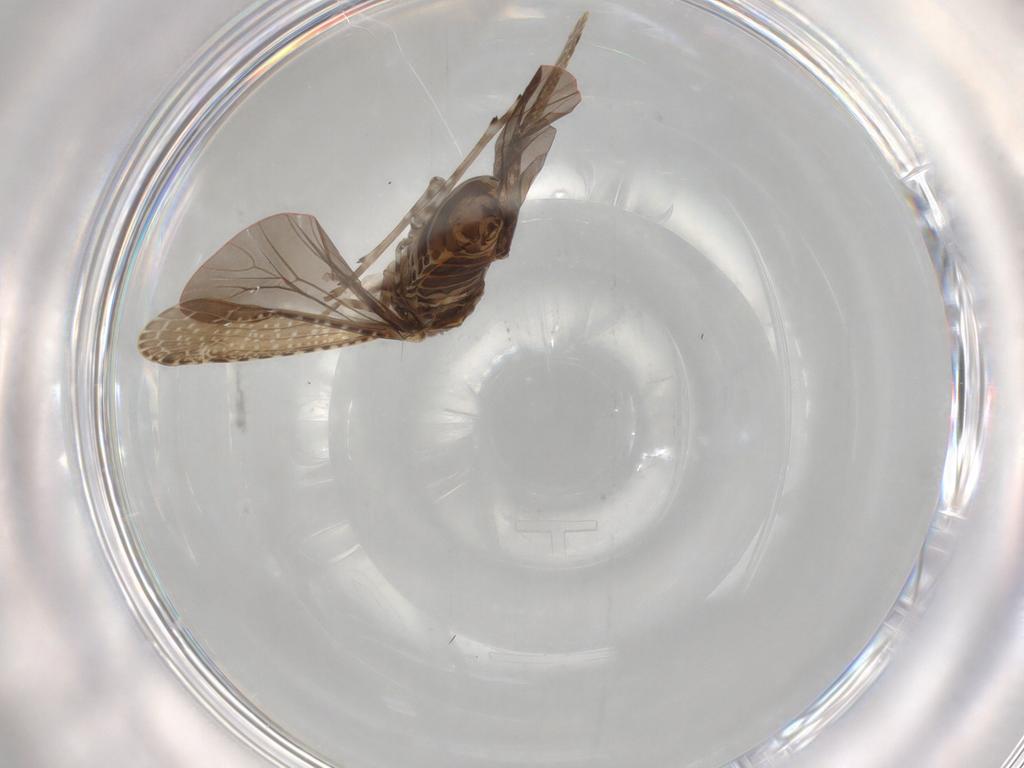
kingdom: Animalia
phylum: Arthropoda
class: Insecta
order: Hemiptera
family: Achilidae
